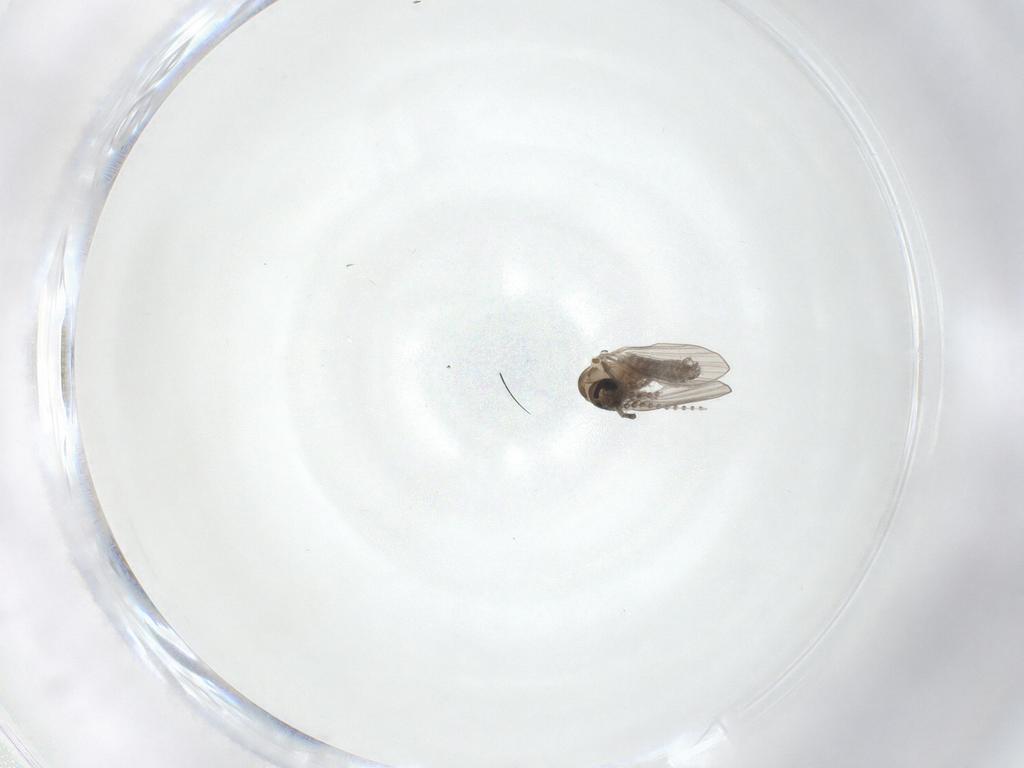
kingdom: Animalia
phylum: Arthropoda
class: Insecta
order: Diptera
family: Psychodidae
